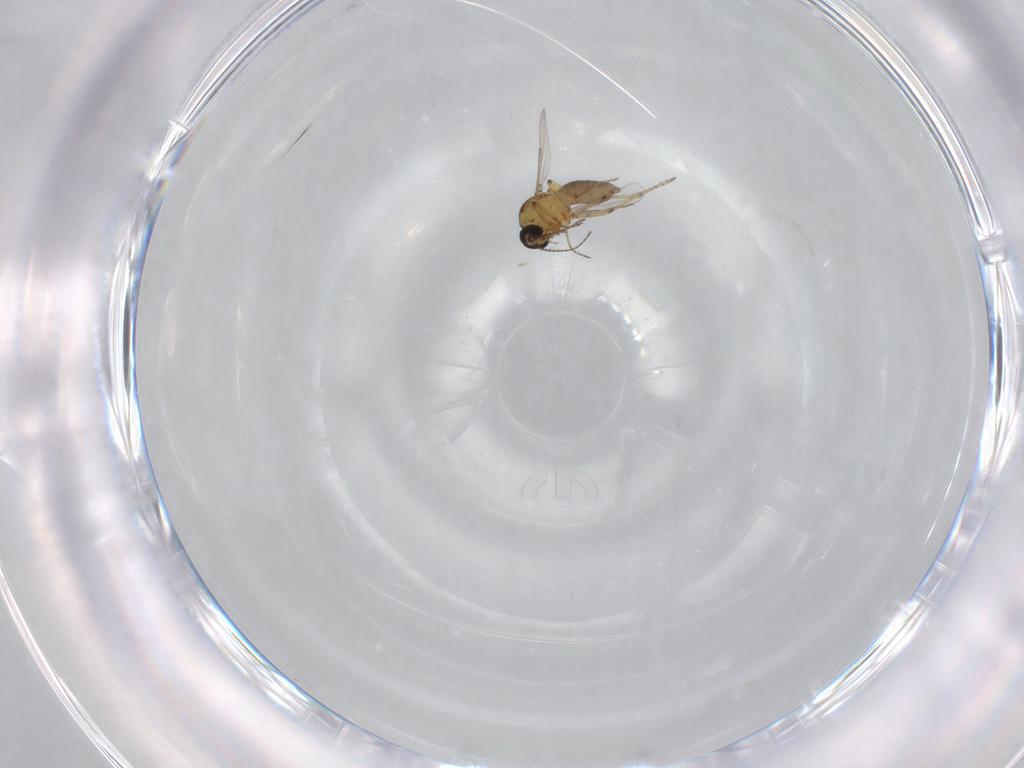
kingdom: Animalia
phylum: Arthropoda
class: Insecta
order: Diptera
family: Ceratopogonidae
